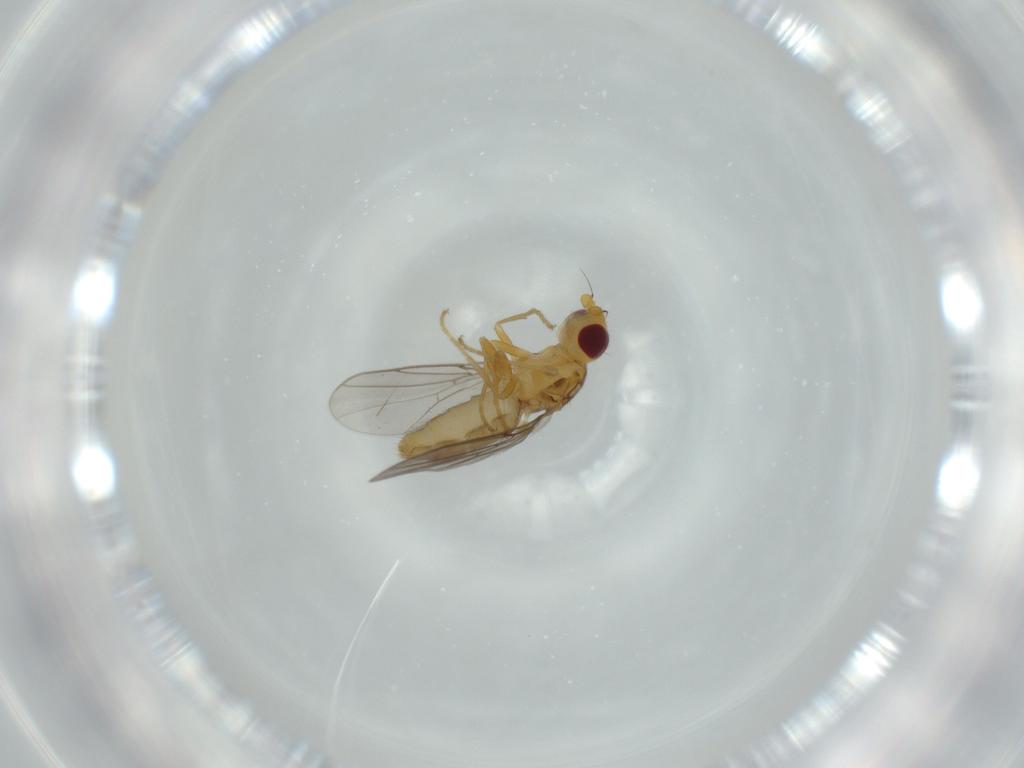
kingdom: Animalia
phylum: Arthropoda
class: Insecta
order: Diptera
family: Chloropidae
